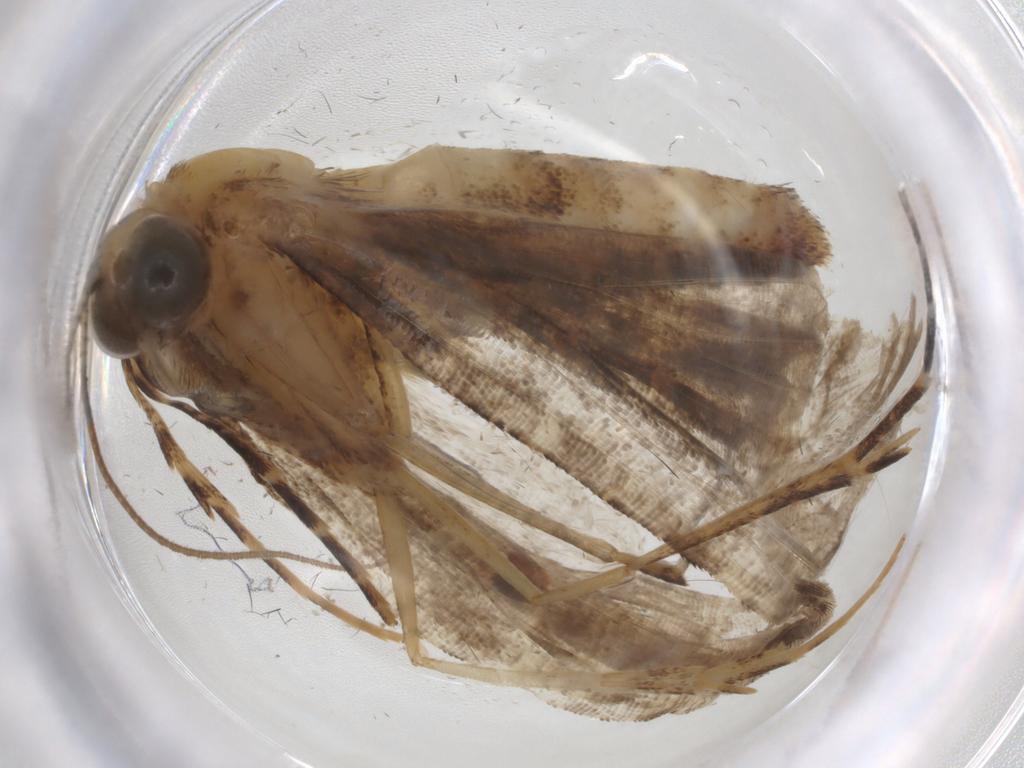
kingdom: Animalia
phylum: Arthropoda
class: Insecta
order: Lepidoptera
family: Geometridae
